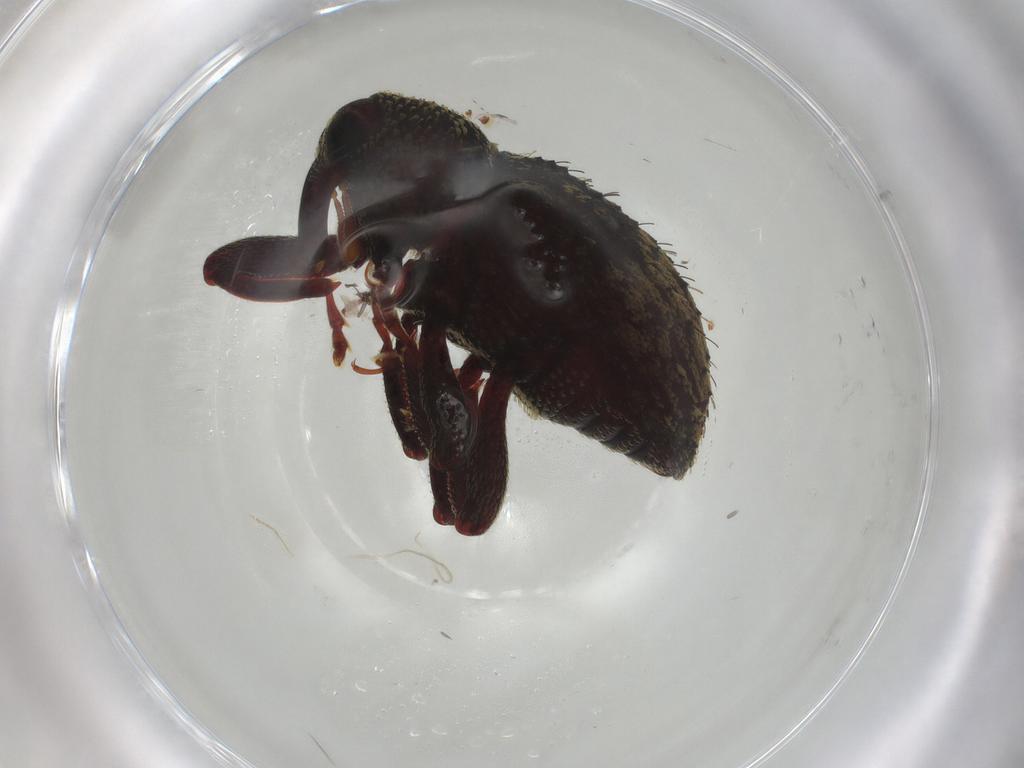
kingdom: Animalia
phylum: Arthropoda
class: Insecta
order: Coleoptera
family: Curculionidae
